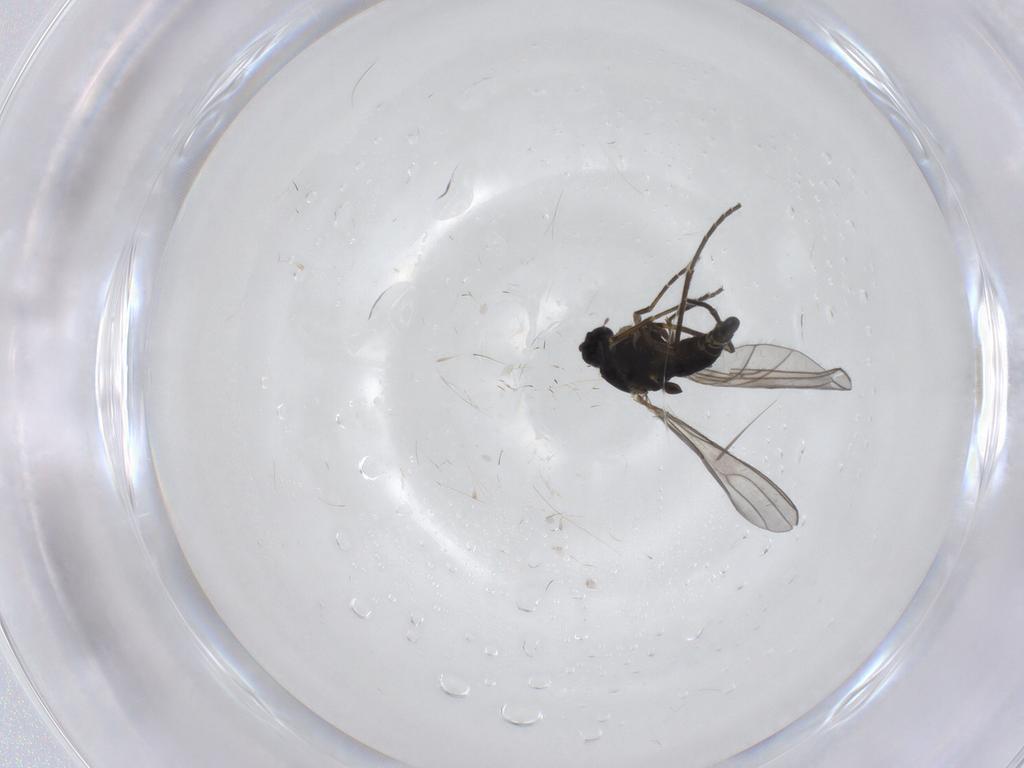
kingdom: Animalia
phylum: Arthropoda
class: Insecta
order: Diptera
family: Sciaridae
